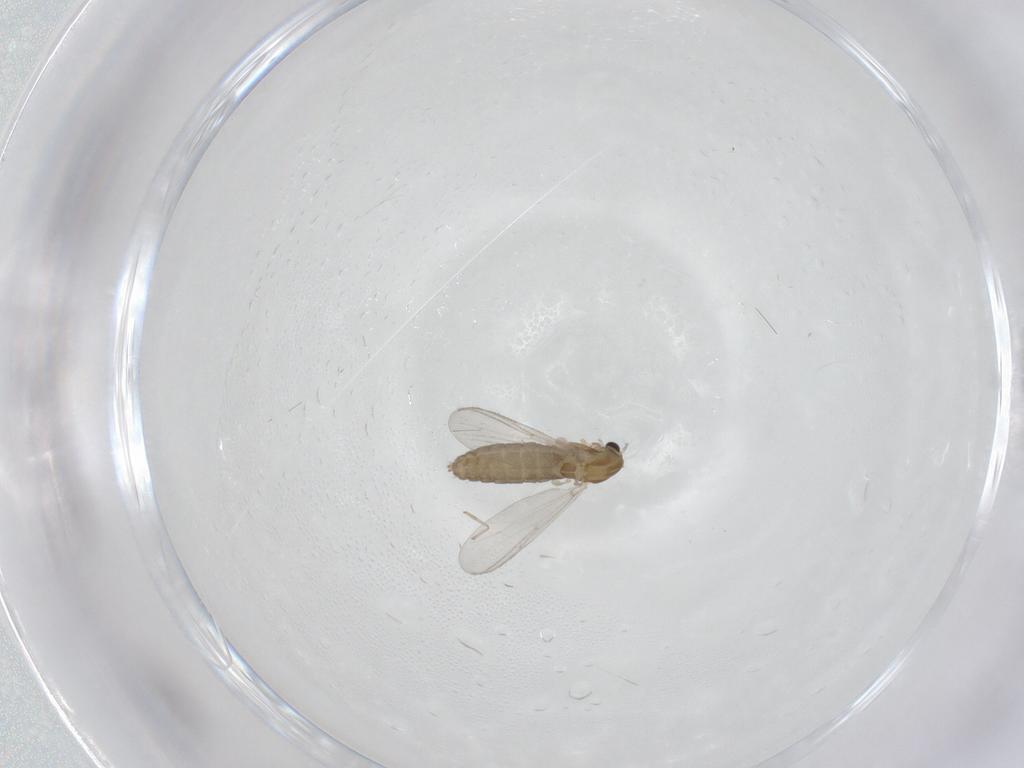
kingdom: Animalia
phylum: Arthropoda
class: Insecta
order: Diptera
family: Chironomidae
